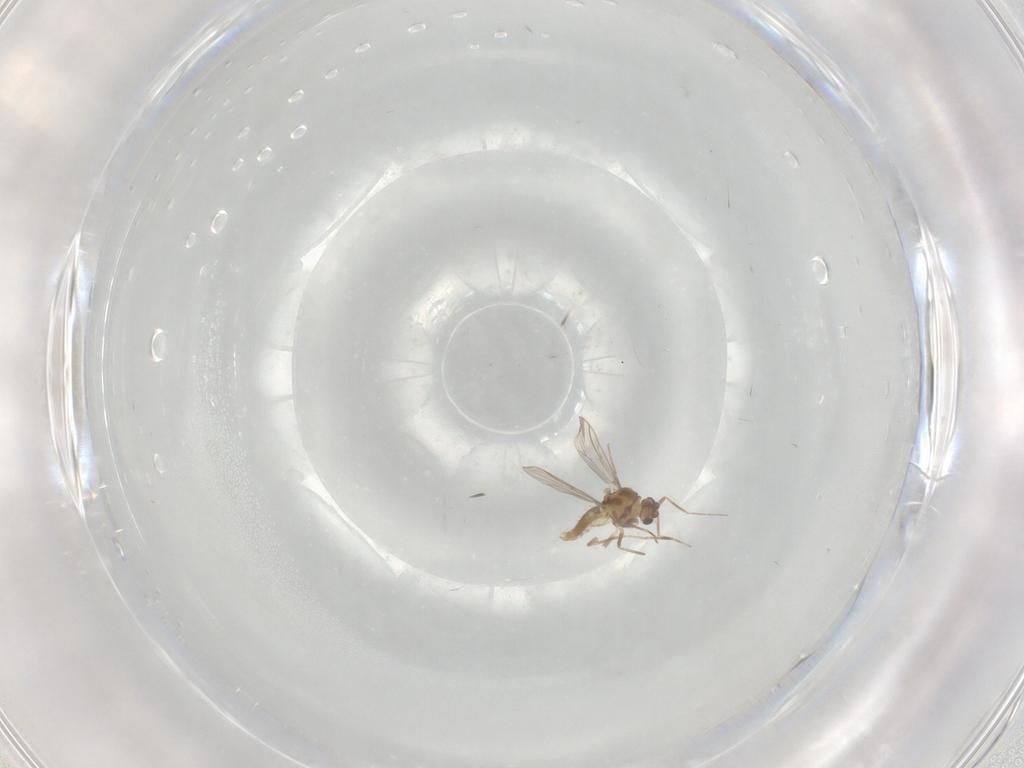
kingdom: Animalia
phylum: Arthropoda
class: Insecta
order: Diptera
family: Chironomidae
